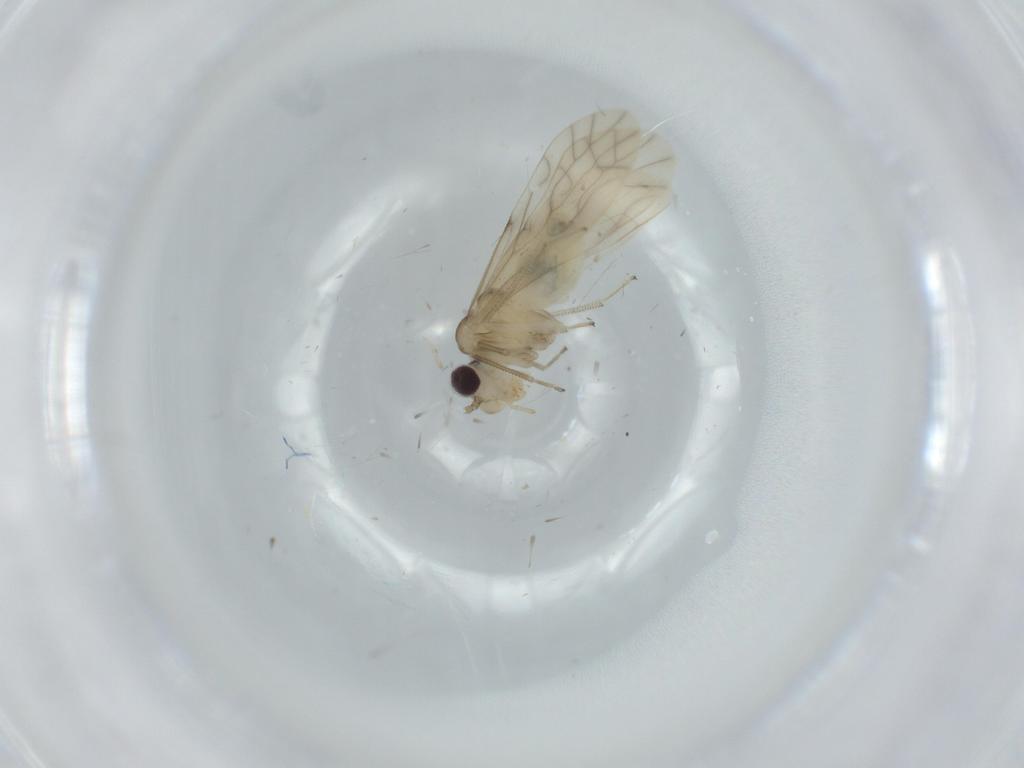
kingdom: Animalia
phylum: Arthropoda
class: Insecta
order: Psocodea
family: Caeciliusidae
